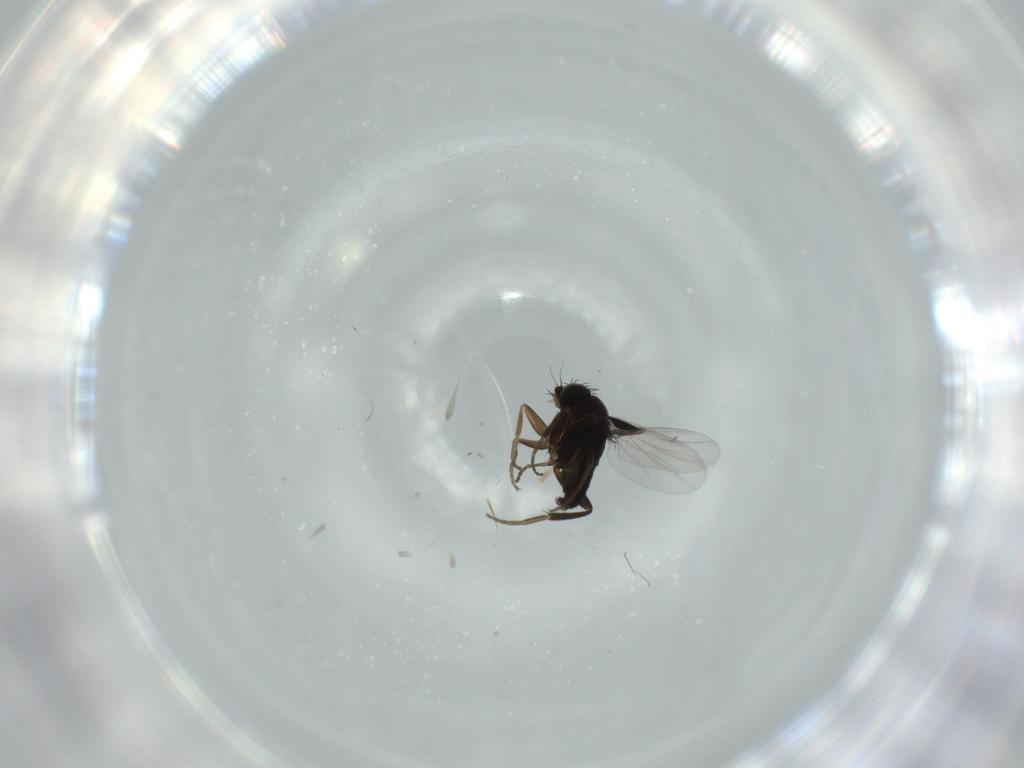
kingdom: Animalia
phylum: Arthropoda
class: Insecta
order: Diptera
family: Phoridae
